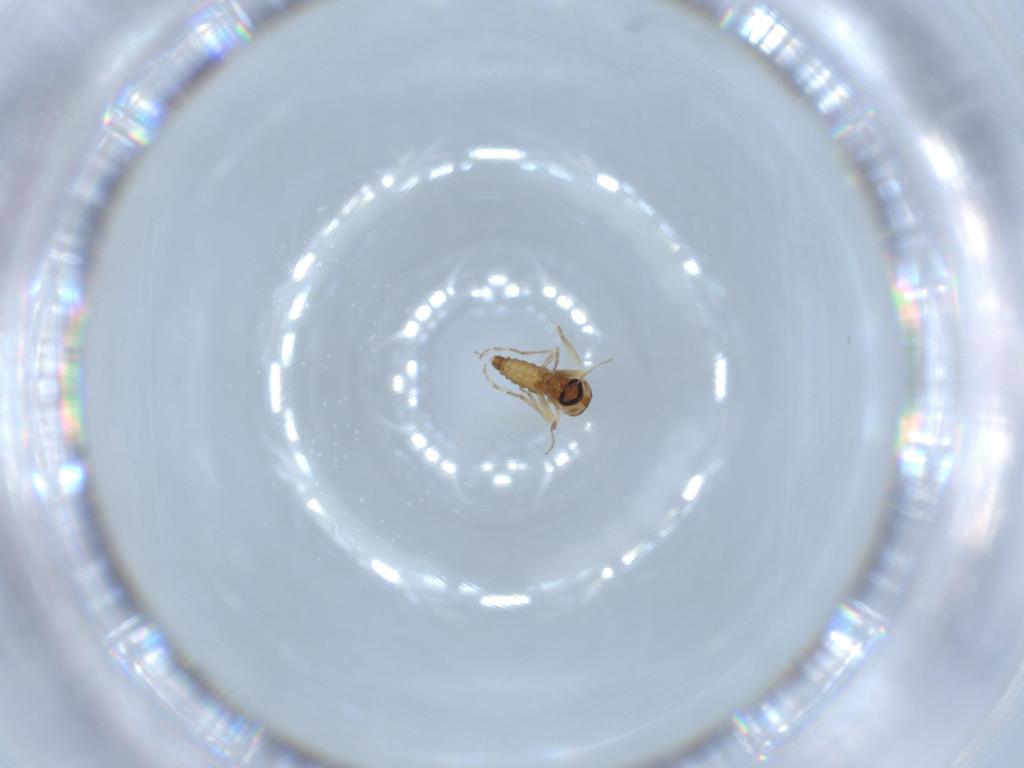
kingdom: Animalia
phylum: Arthropoda
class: Insecta
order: Diptera
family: Ceratopogonidae
